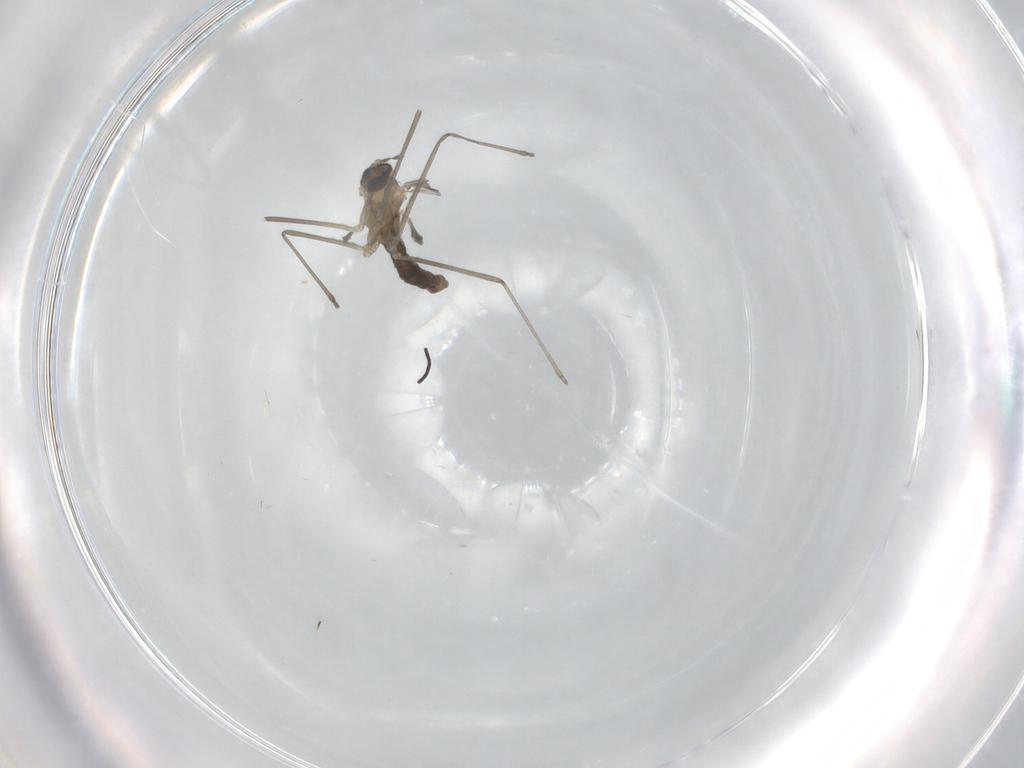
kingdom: Animalia
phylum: Arthropoda
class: Insecta
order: Diptera
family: Cecidomyiidae
